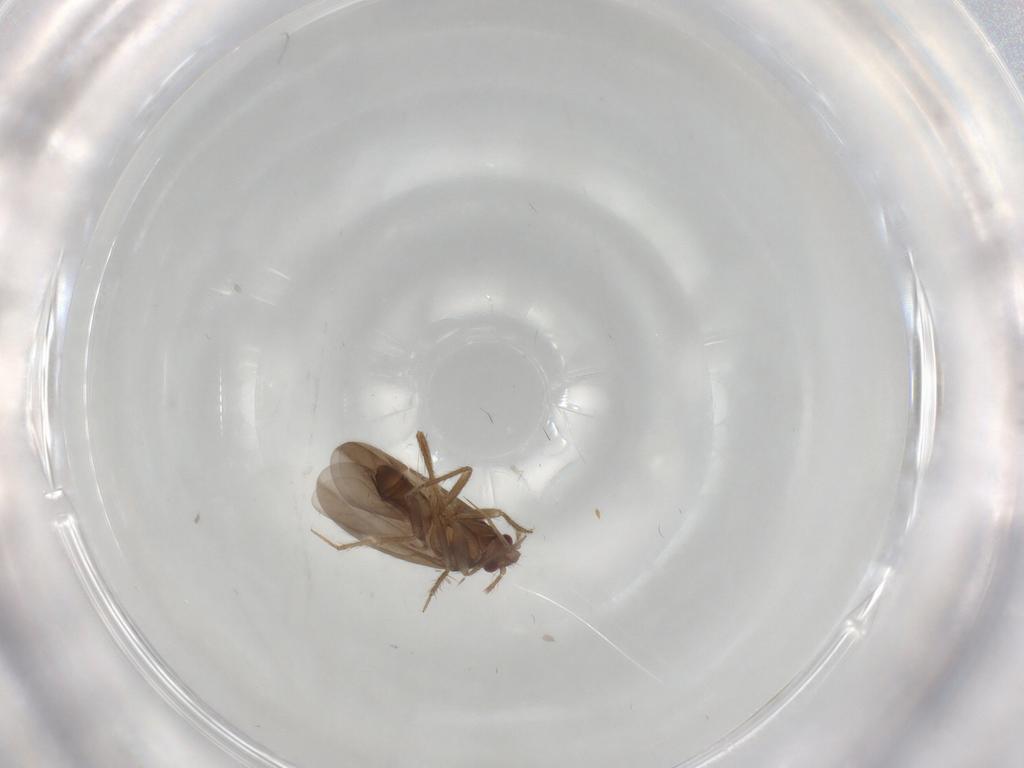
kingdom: Animalia
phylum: Arthropoda
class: Insecta
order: Hemiptera
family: Ceratocombidae
